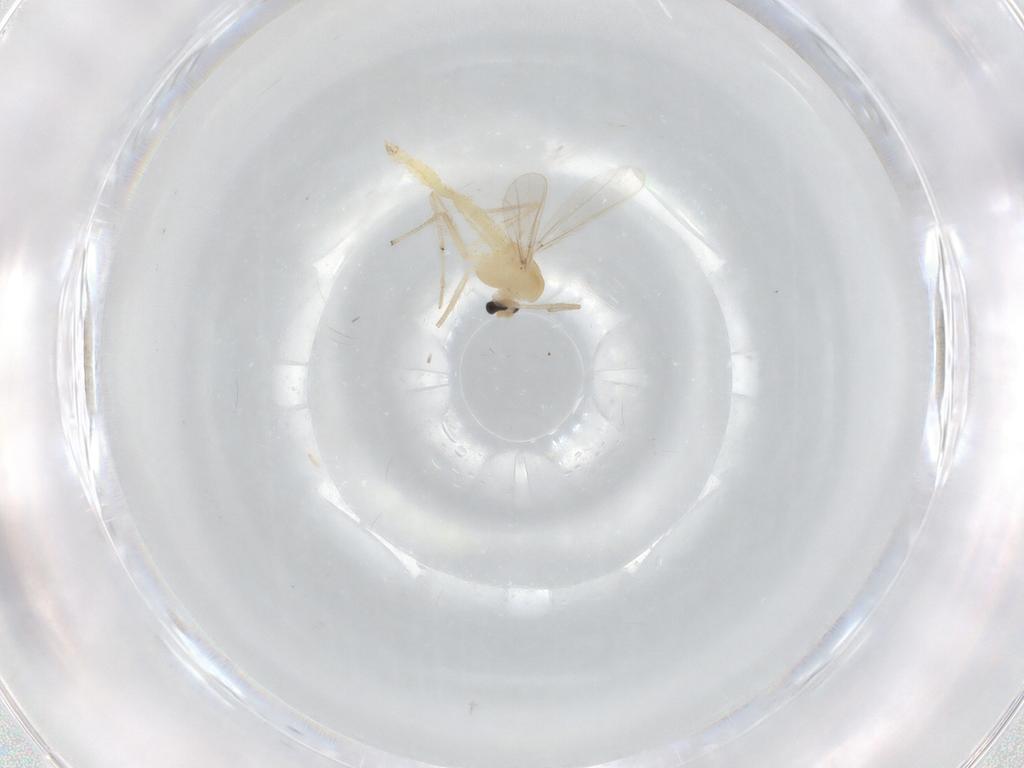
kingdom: Animalia
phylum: Arthropoda
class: Insecta
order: Diptera
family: Chironomidae
